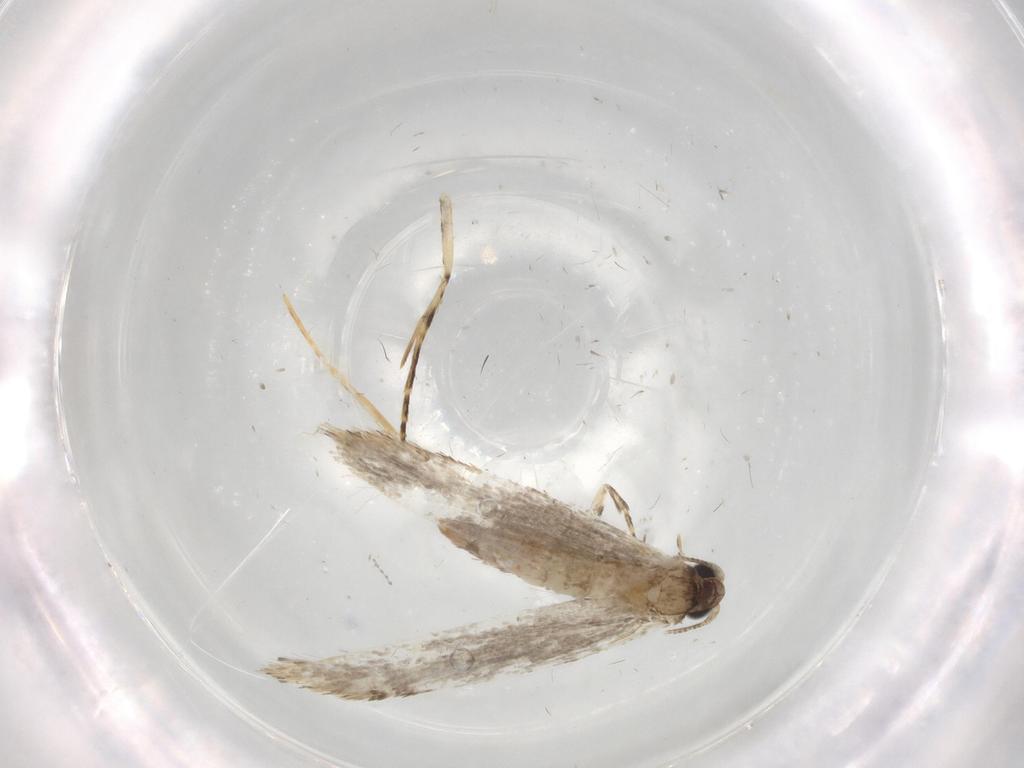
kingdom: Animalia
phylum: Arthropoda
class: Insecta
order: Lepidoptera
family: Tineidae
